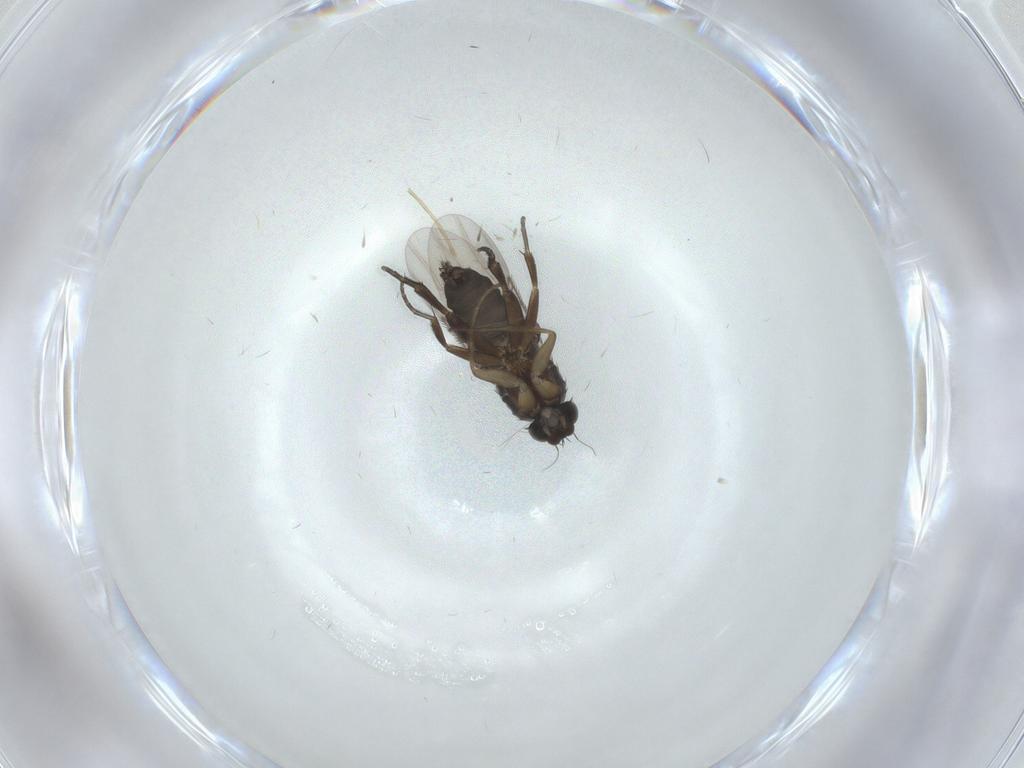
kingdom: Animalia
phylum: Arthropoda
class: Insecta
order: Diptera
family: Phoridae
